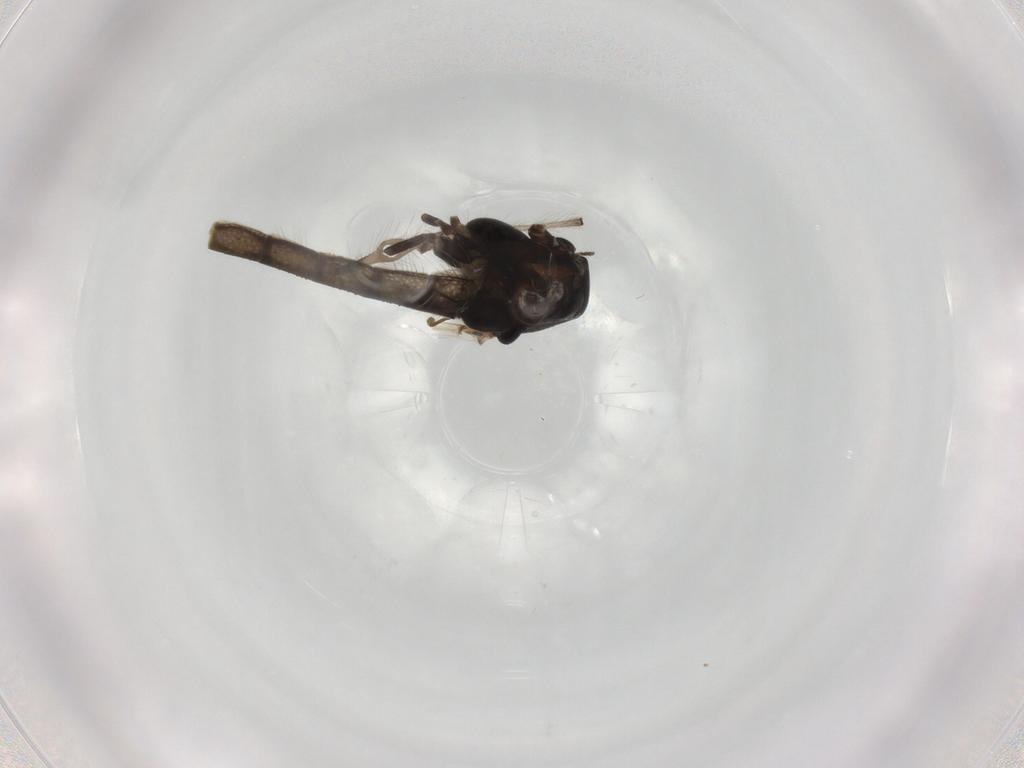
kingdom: Animalia
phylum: Arthropoda
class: Insecta
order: Diptera
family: Chironomidae
